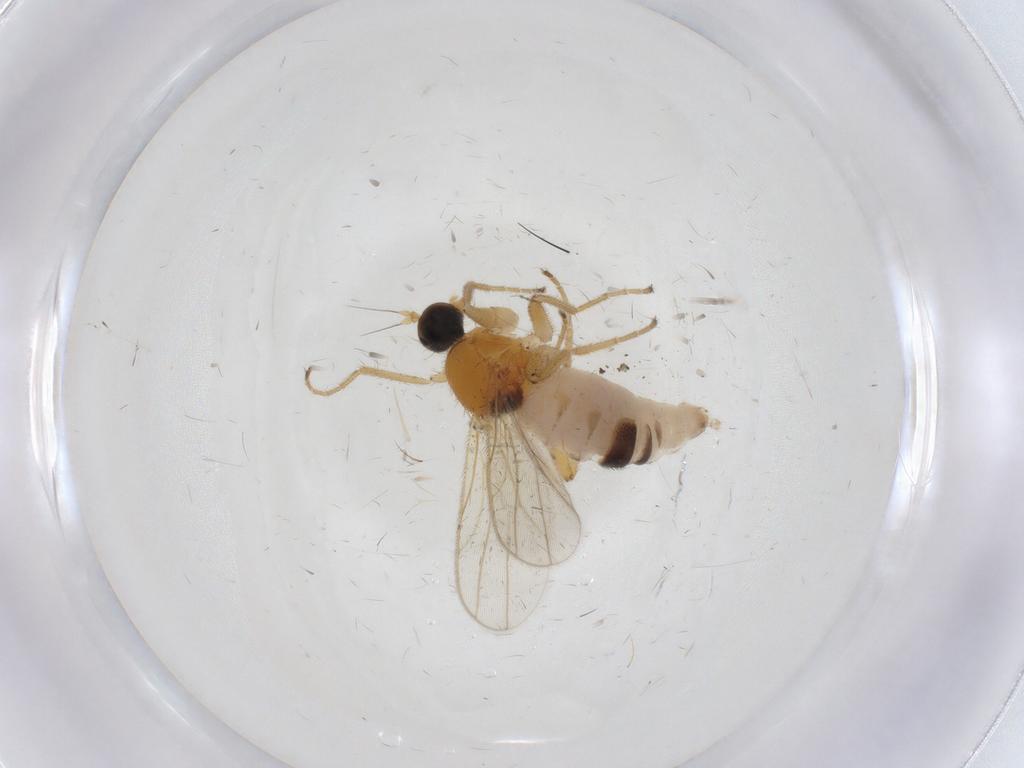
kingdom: Animalia
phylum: Arthropoda
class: Insecta
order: Diptera
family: Hybotidae
